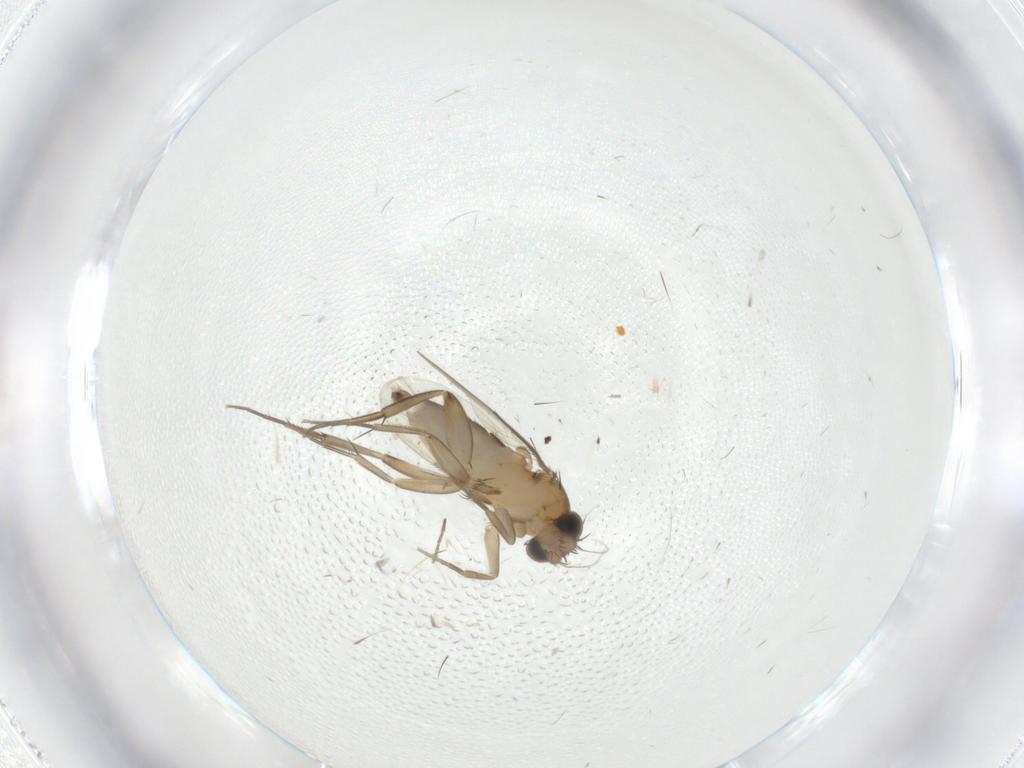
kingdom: Animalia
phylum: Arthropoda
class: Insecta
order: Diptera
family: Phoridae
